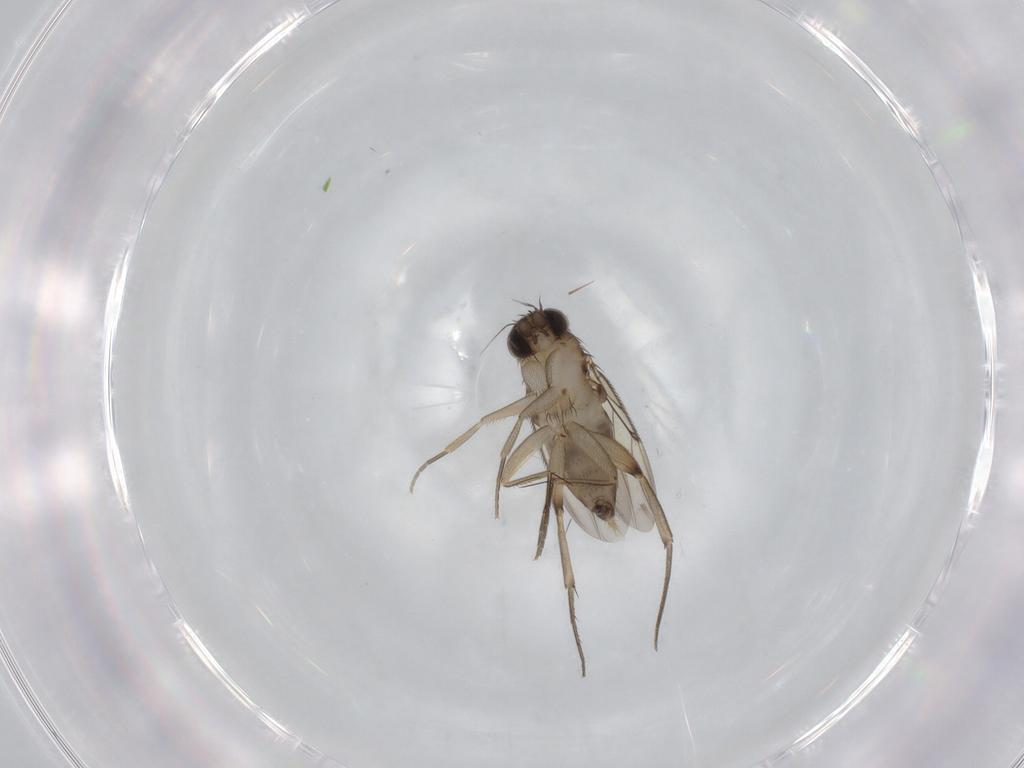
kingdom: Animalia
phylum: Arthropoda
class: Insecta
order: Diptera
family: Phoridae
